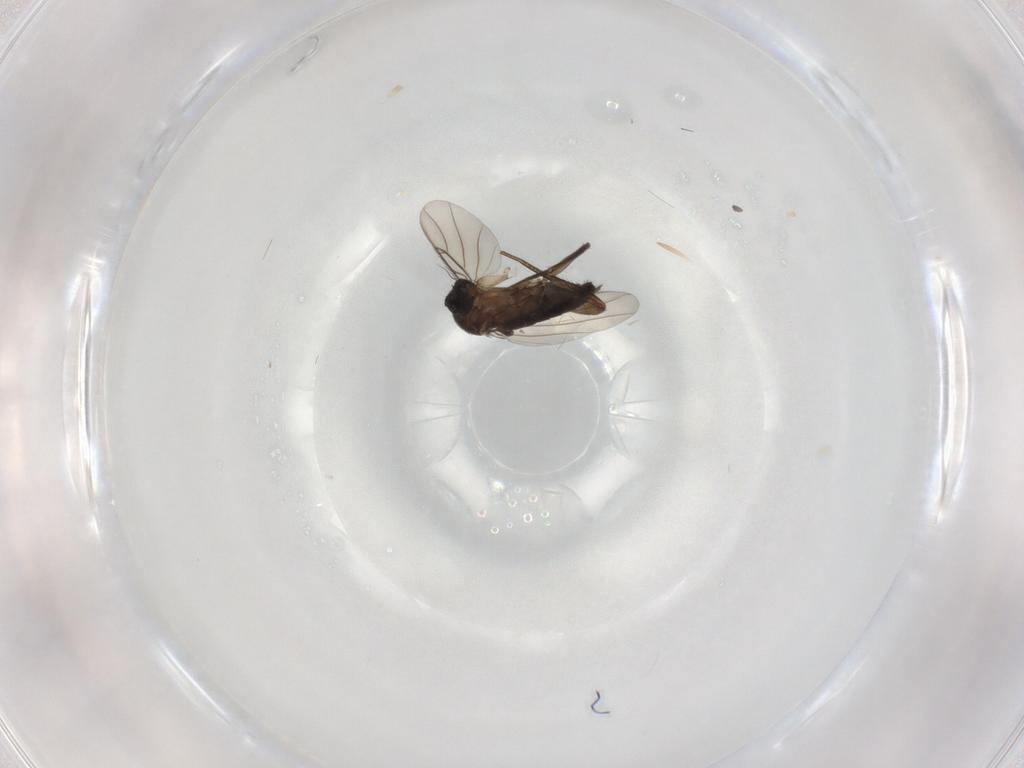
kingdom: Animalia
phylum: Arthropoda
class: Insecta
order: Diptera
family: Phoridae
